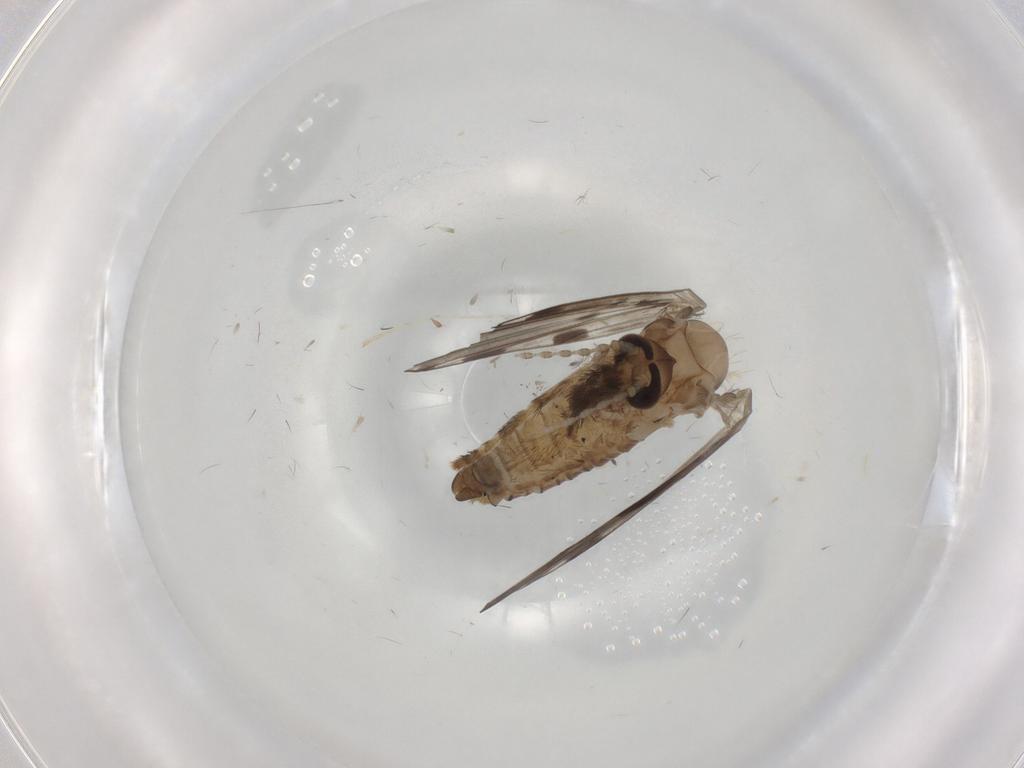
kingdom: Animalia
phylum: Arthropoda
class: Insecta
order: Diptera
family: Psychodidae
